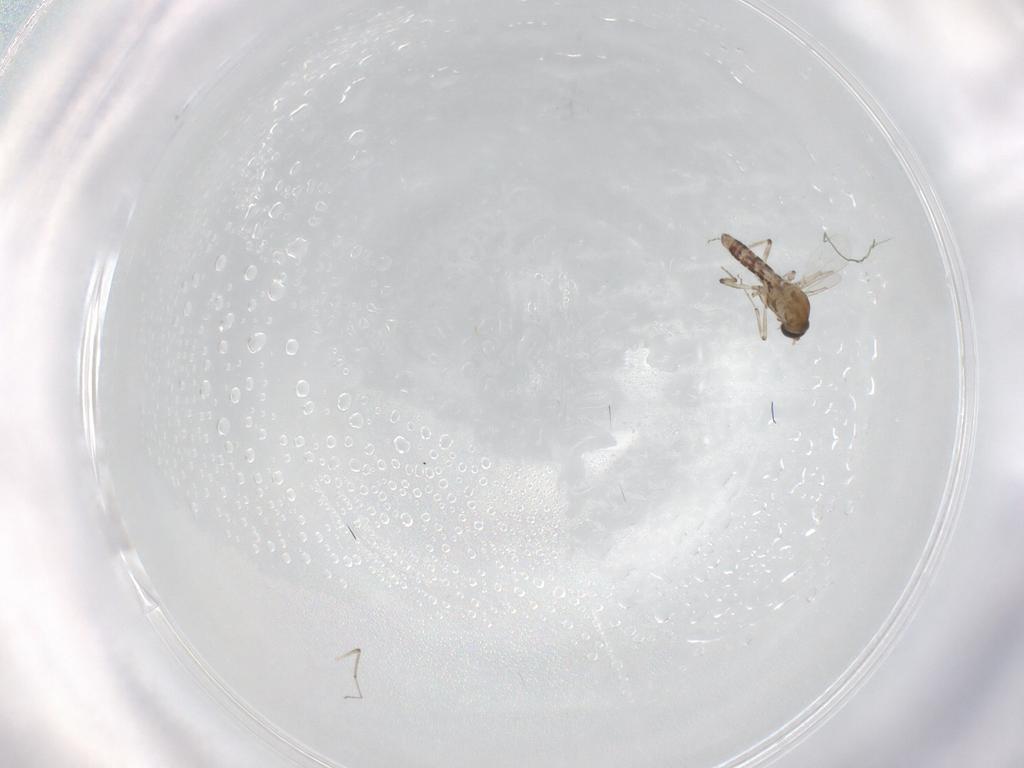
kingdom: Animalia
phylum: Arthropoda
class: Insecta
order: Diptera
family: Ceratopogonidae
